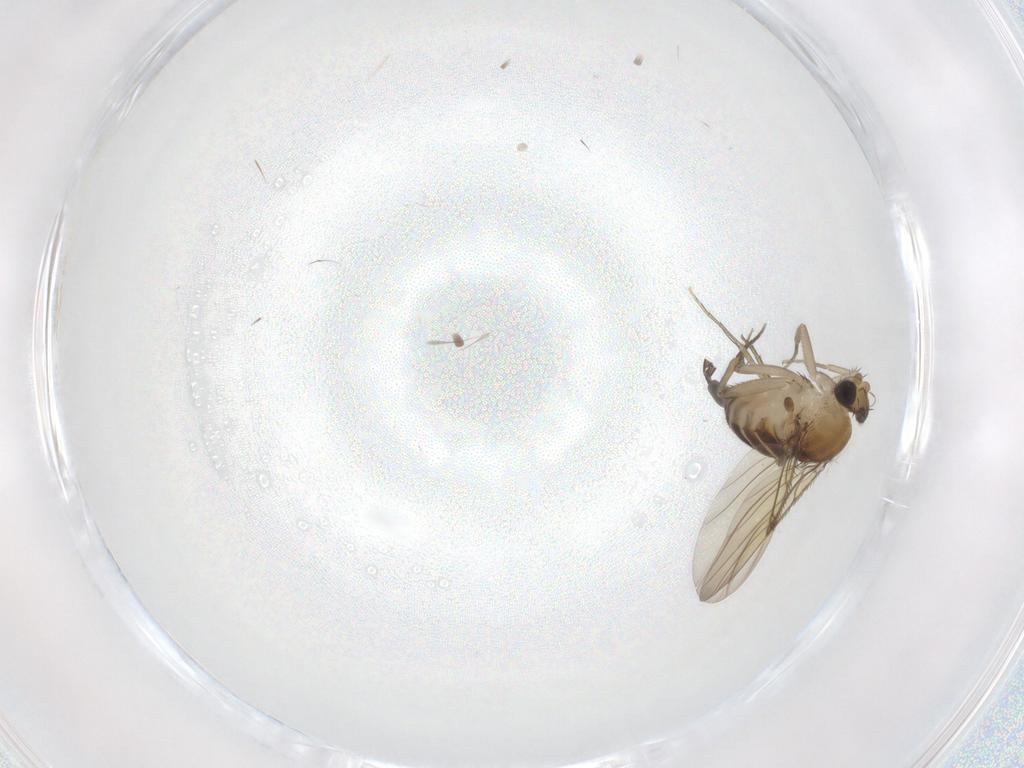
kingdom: Animalia
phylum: Arthropoda
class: Insecta
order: Diptera
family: Phoridae
